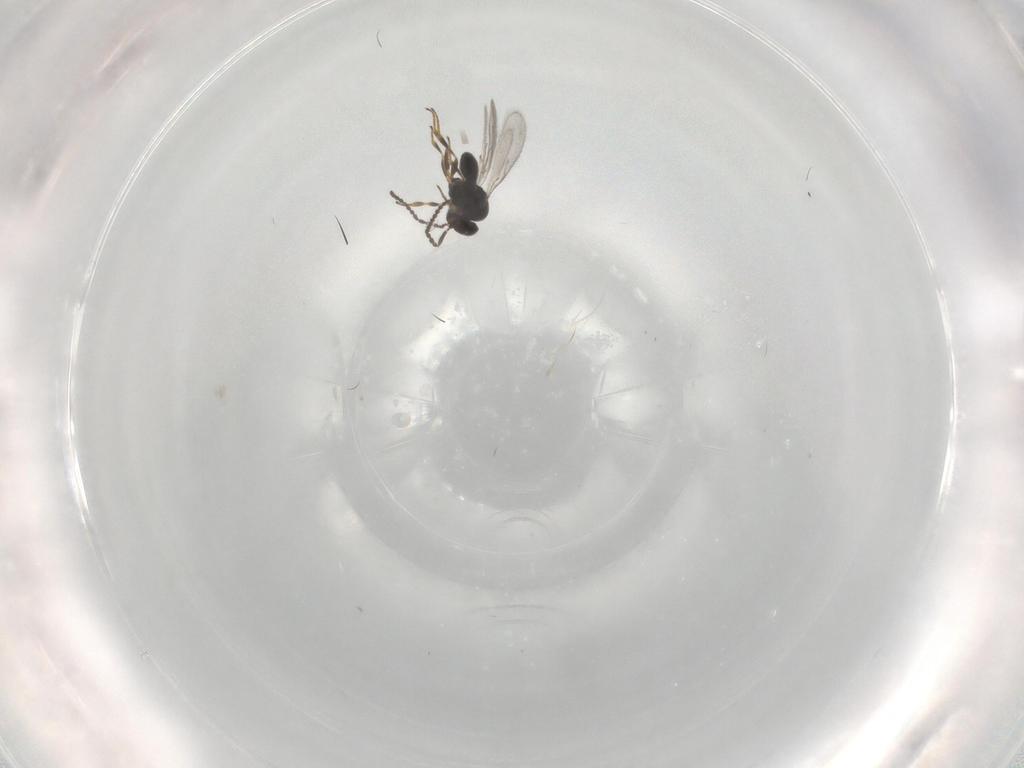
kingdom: Animalia
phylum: Arthropoda
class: Insecta
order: Hymenoptera
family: Scelionidae
